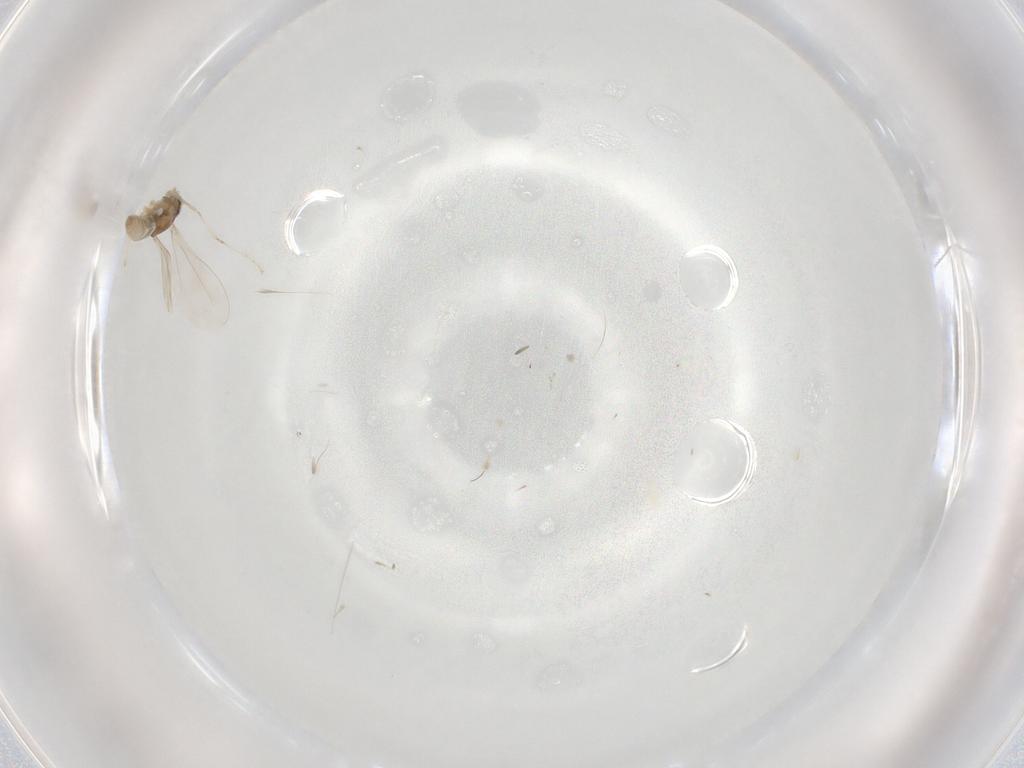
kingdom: Animalia
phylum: Arthropoda
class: Insecta
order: Diptera
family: Cecidomyiidae
